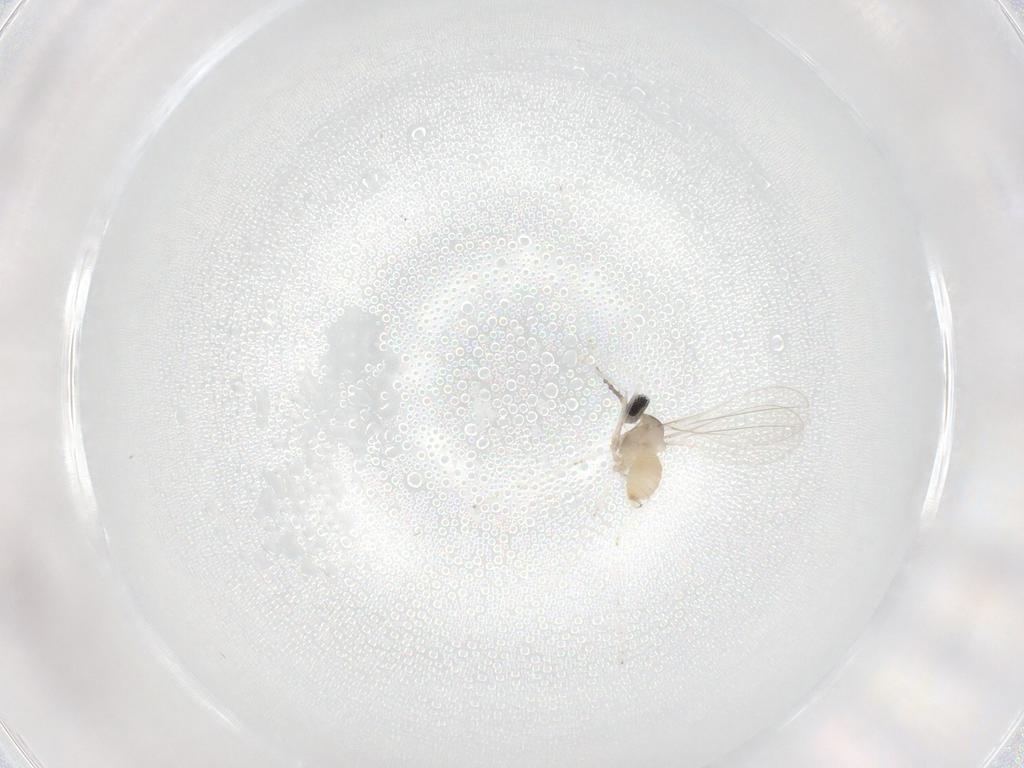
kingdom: Animalia
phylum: Arthropoda
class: Insecta
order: Diptera
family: Cecidomyiidae
